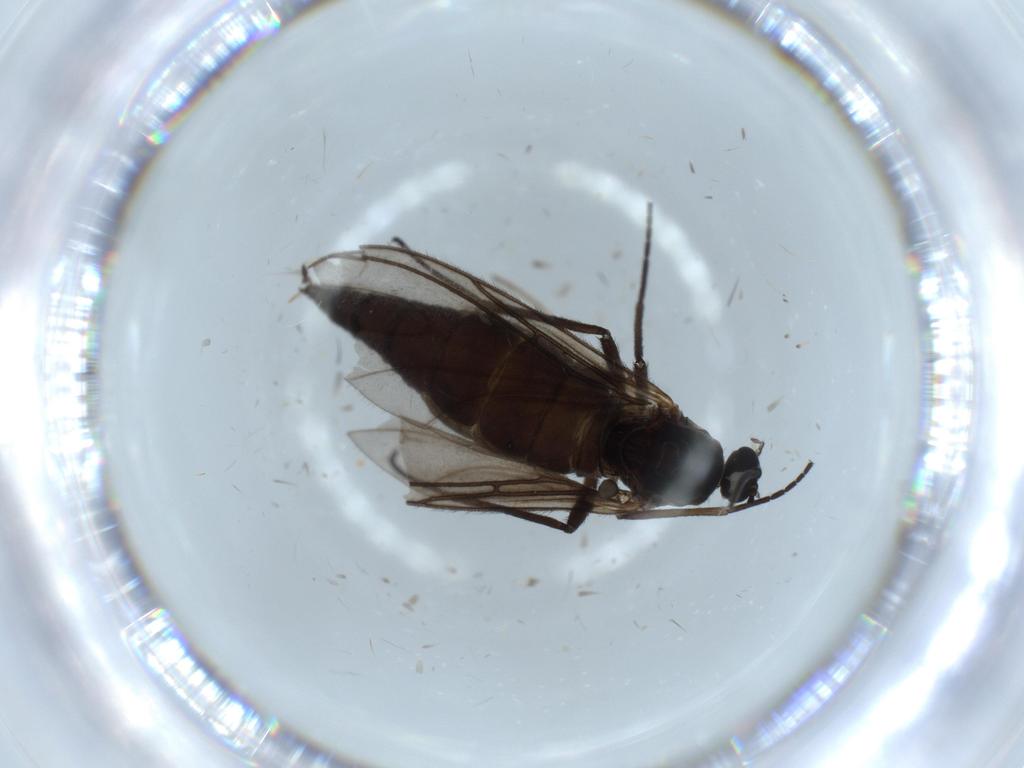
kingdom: Animalia
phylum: Arthropoda
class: Insecta
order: Diptera
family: Sciaridae
